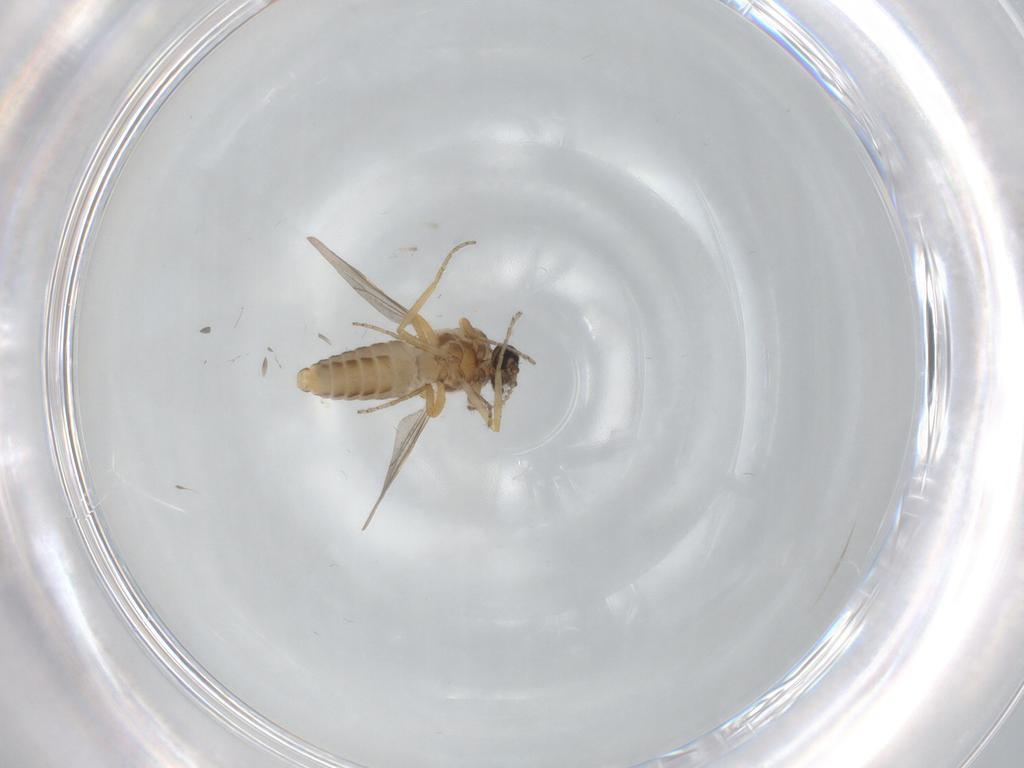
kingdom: Animalia
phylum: Arthropoda
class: Insecta
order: Diptera
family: Ceratopogonidae
